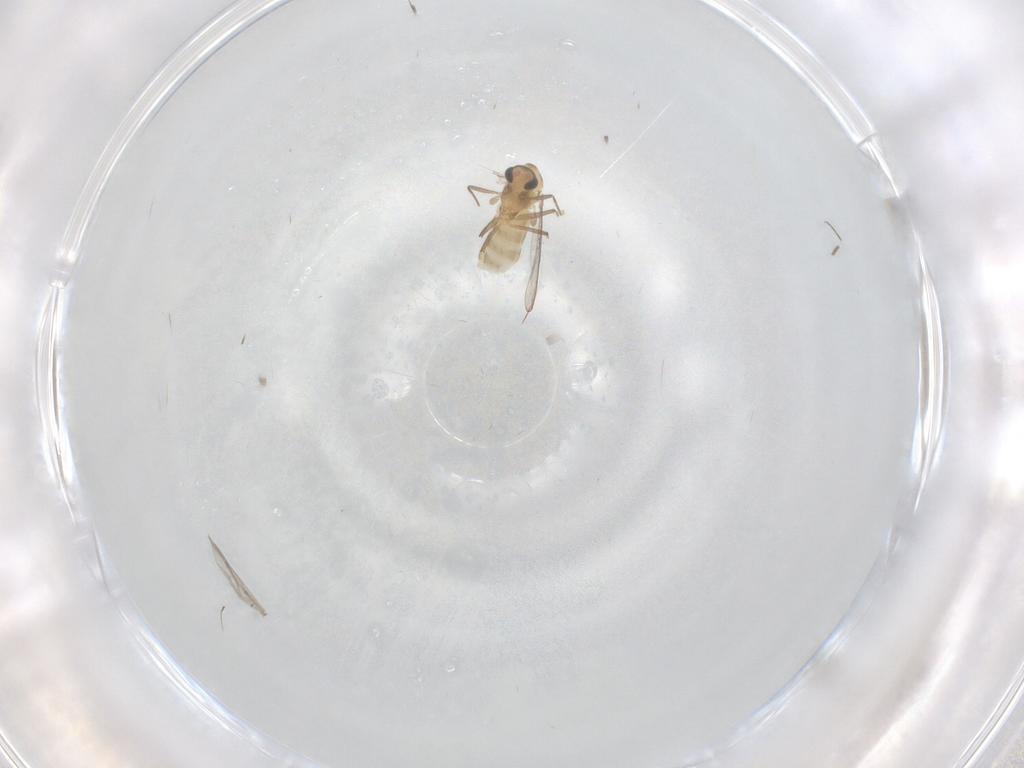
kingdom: Animalia
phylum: Arthropoda
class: Insecta
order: Diptera
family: Chironomidae
